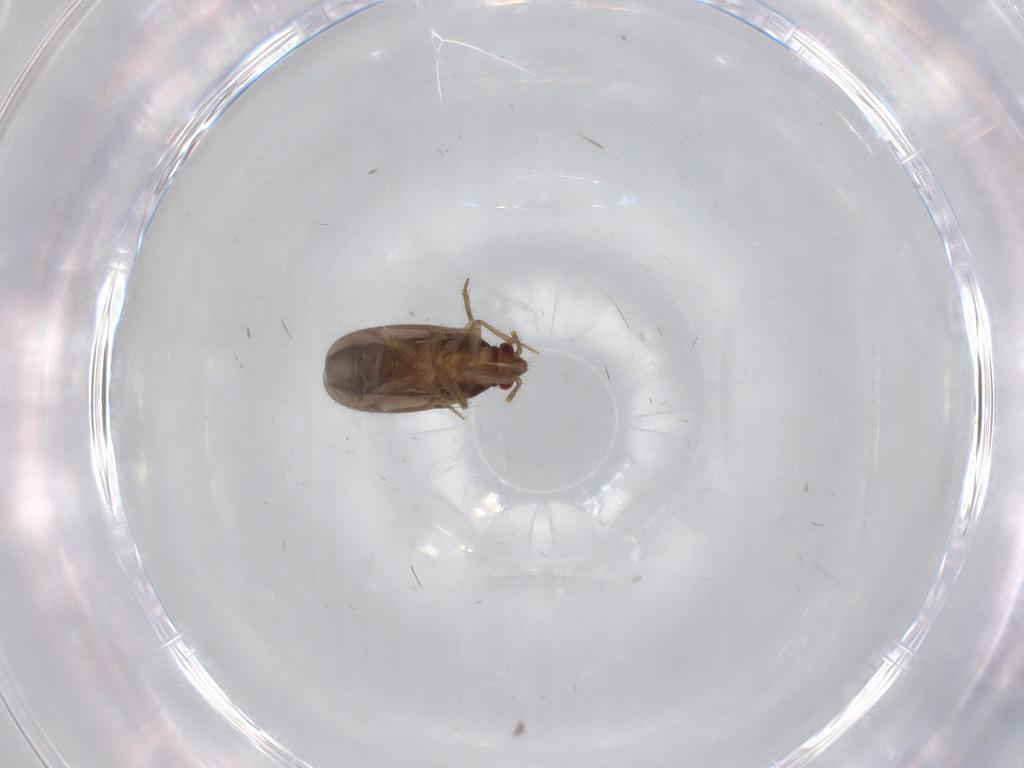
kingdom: Animalia
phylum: Arthropoda
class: Insecta
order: Hemiptera
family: Ceratocombidae
